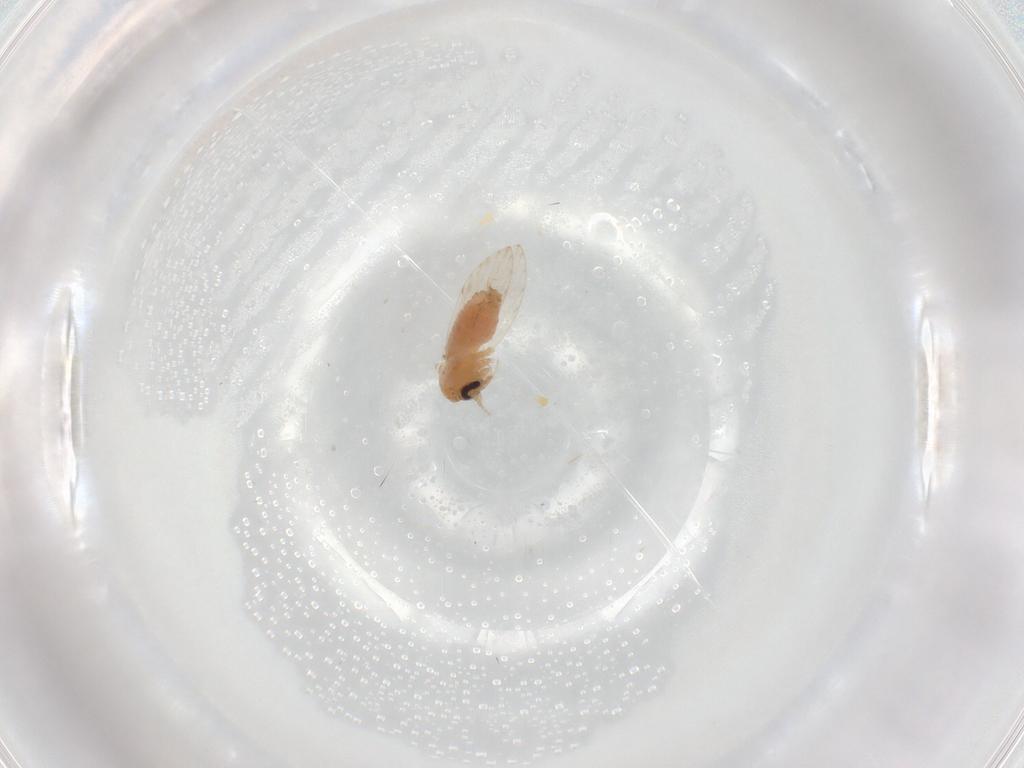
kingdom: Animalia
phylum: Arthropoda
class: Insecta
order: Diptera
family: Psychodidae
